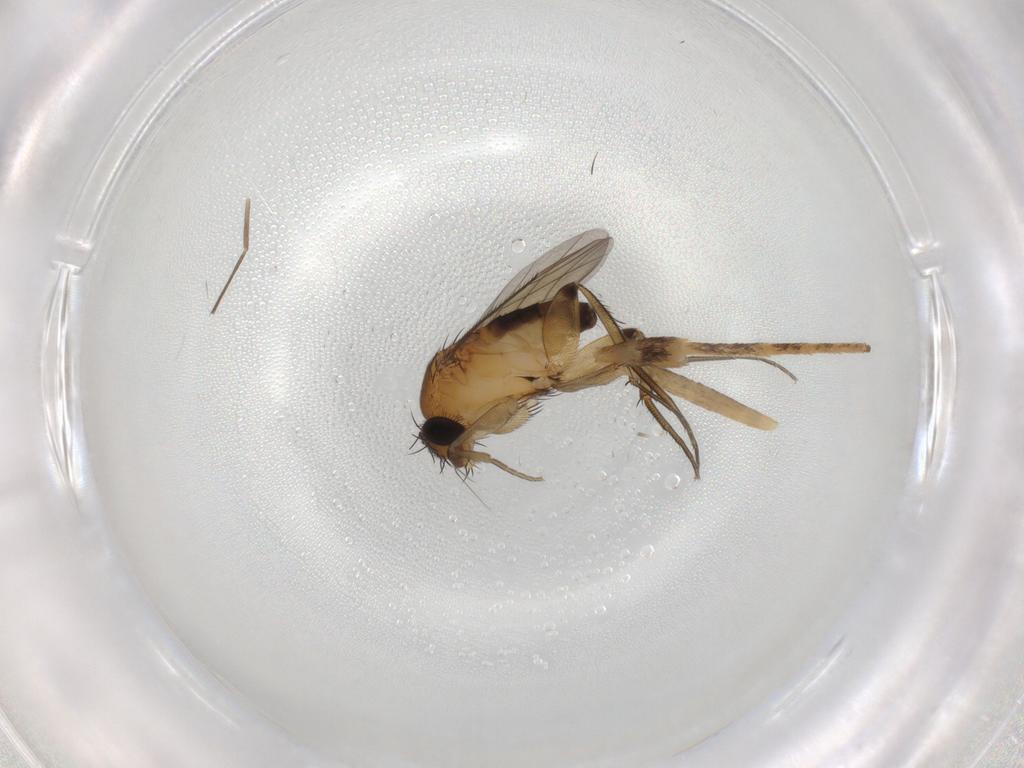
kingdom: Animalia
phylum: Arthropoda
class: Insecta
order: Diptera
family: Phoridae
